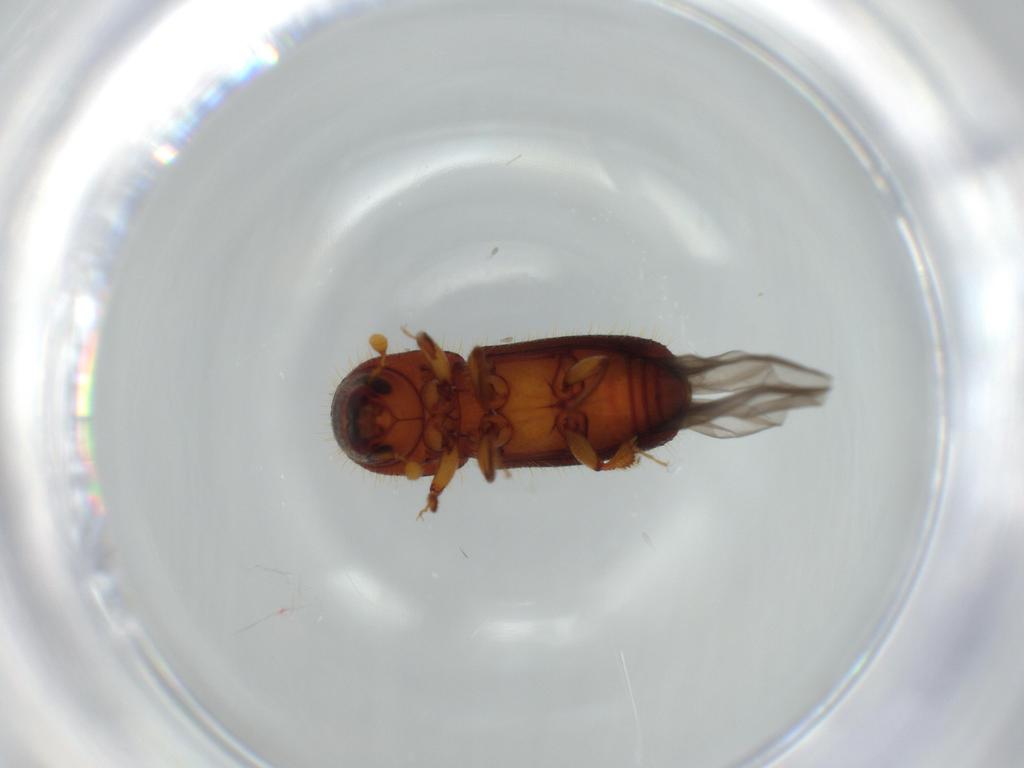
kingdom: Animalia
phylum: Arthropoda
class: Insecta
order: Coleoptera
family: Curculionidae
